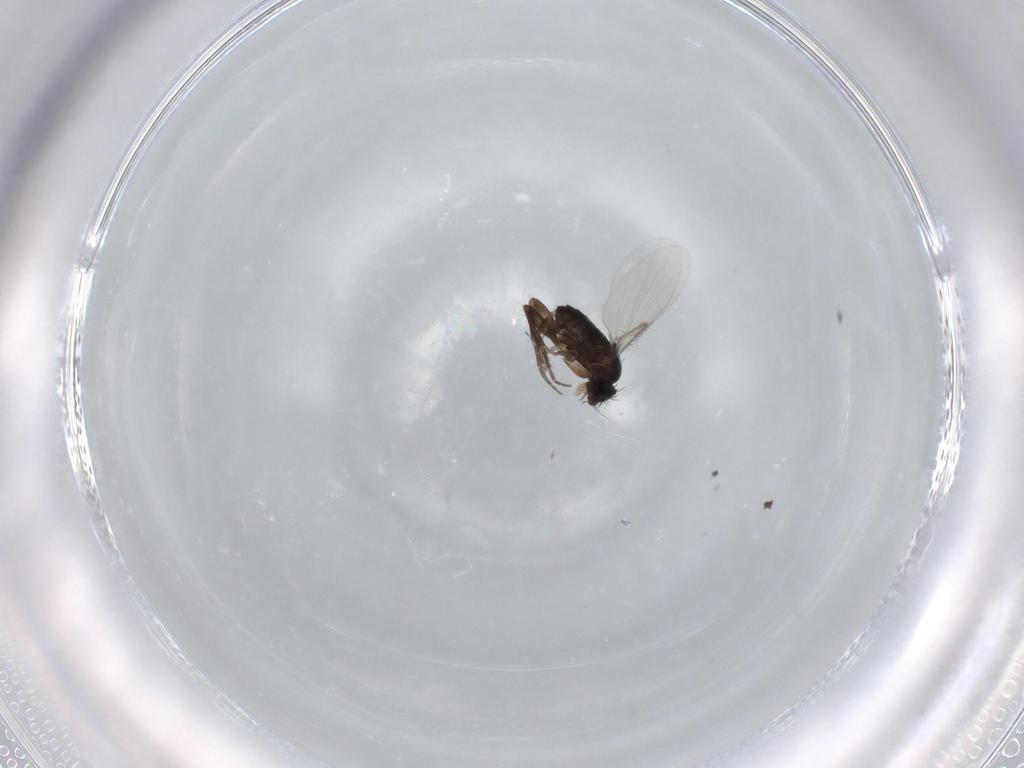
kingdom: Animalia
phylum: Arthropoda
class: Insecta
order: Diptera
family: Phoridae
